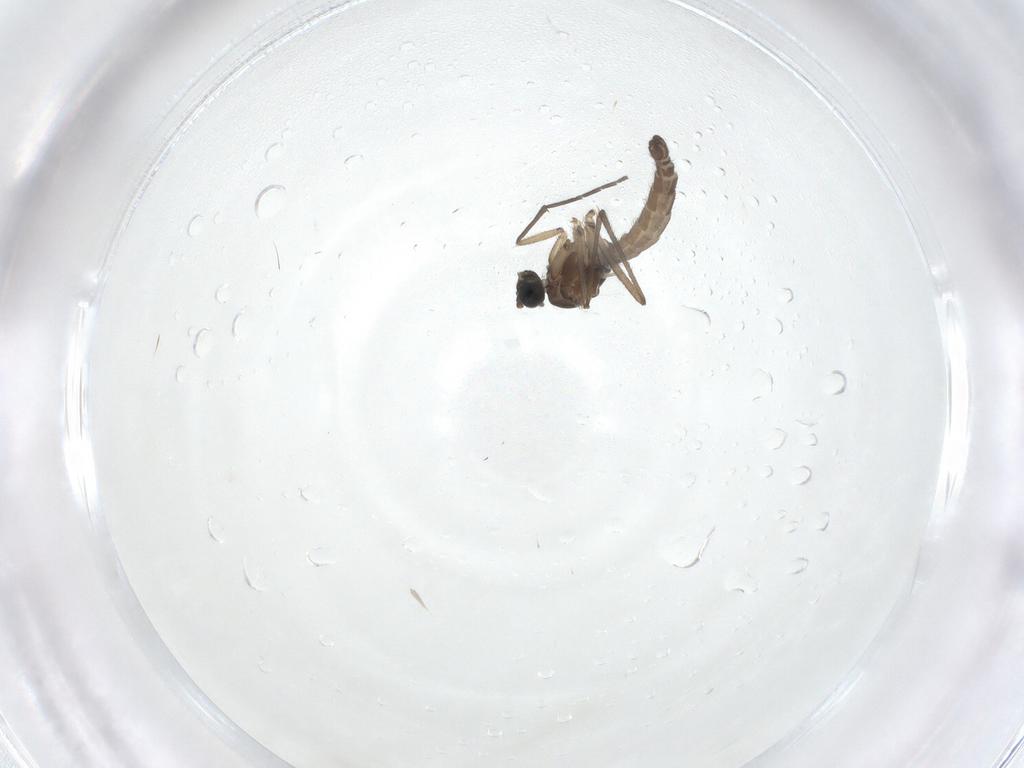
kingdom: Animalia
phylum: Arthropoda
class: Insecta
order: Diptera
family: Sciaridae
